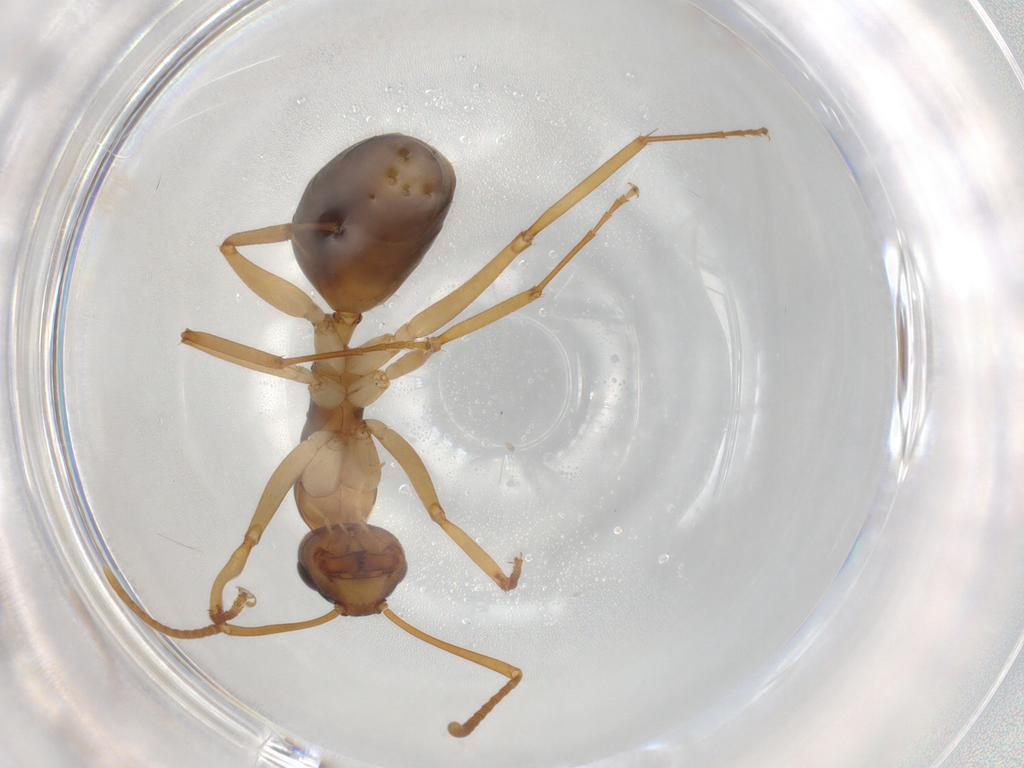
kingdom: Animalia
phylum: Arthropoda
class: Insecta
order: Hymenoptera
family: Formicidae
